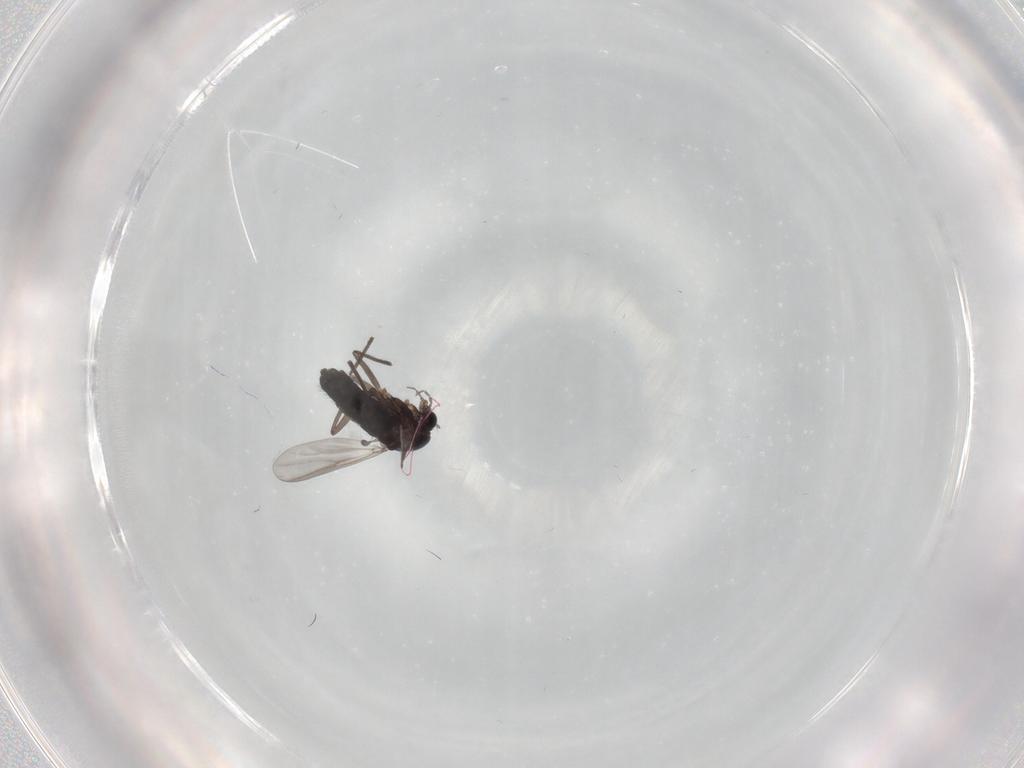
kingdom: Animalia
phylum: Arthropoda
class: Insecta
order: Diptera
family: Chironomidae
